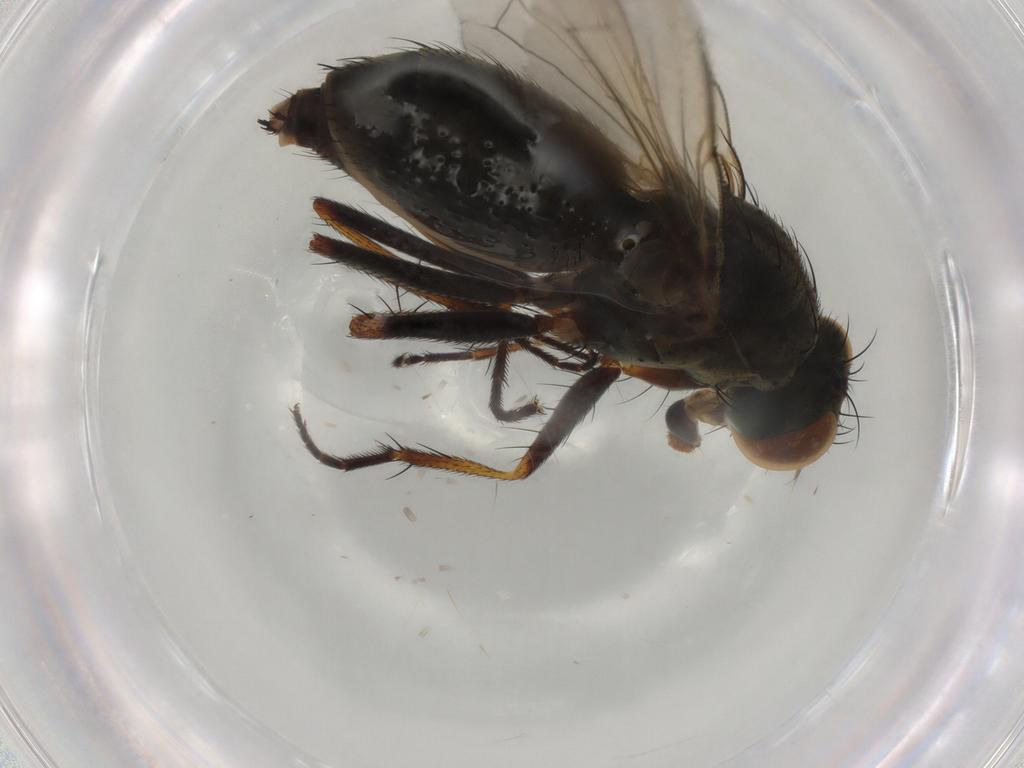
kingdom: Animalia
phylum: Arthropoda
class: Insecta
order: Diptera
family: Muscidae
